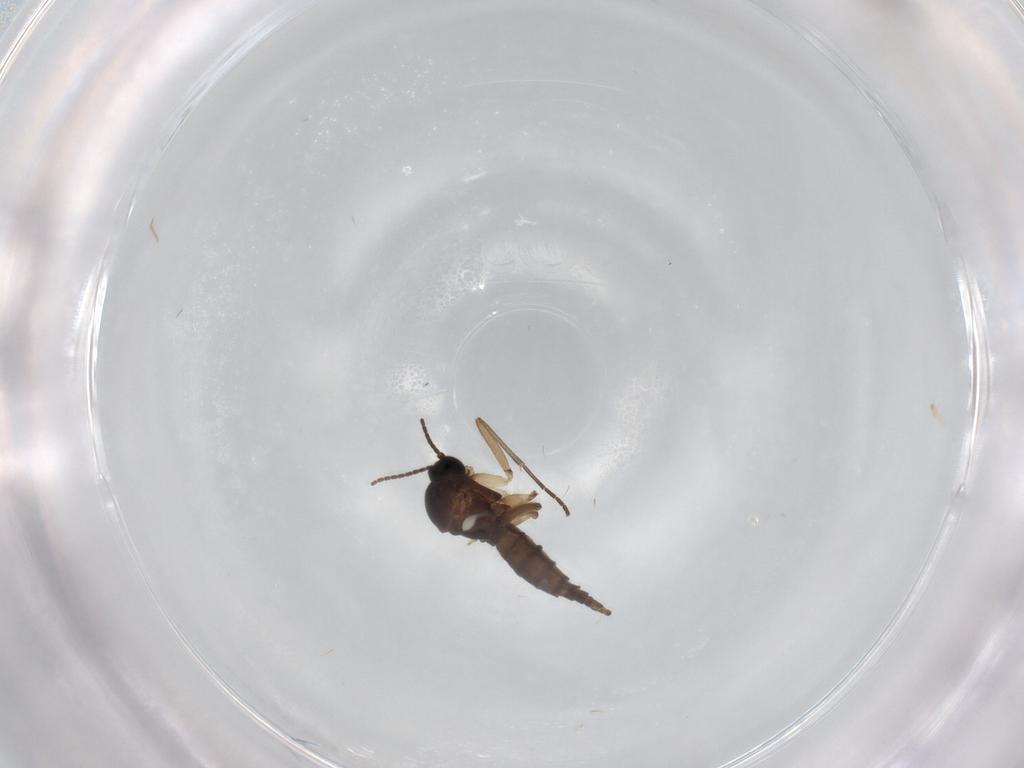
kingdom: Animalia
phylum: Arthropoda
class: Insecta
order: Diptera
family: Sciaridae
